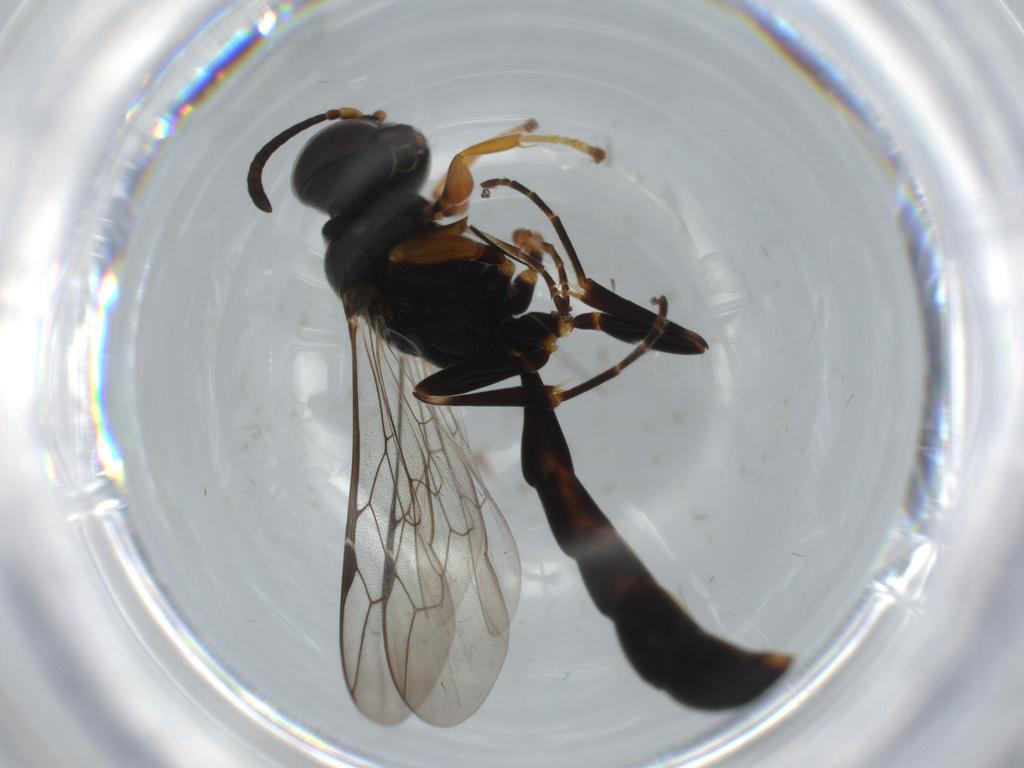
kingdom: Animalia
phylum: Arthropoda
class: Insecta
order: Hymenoptera
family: Crabronidae
